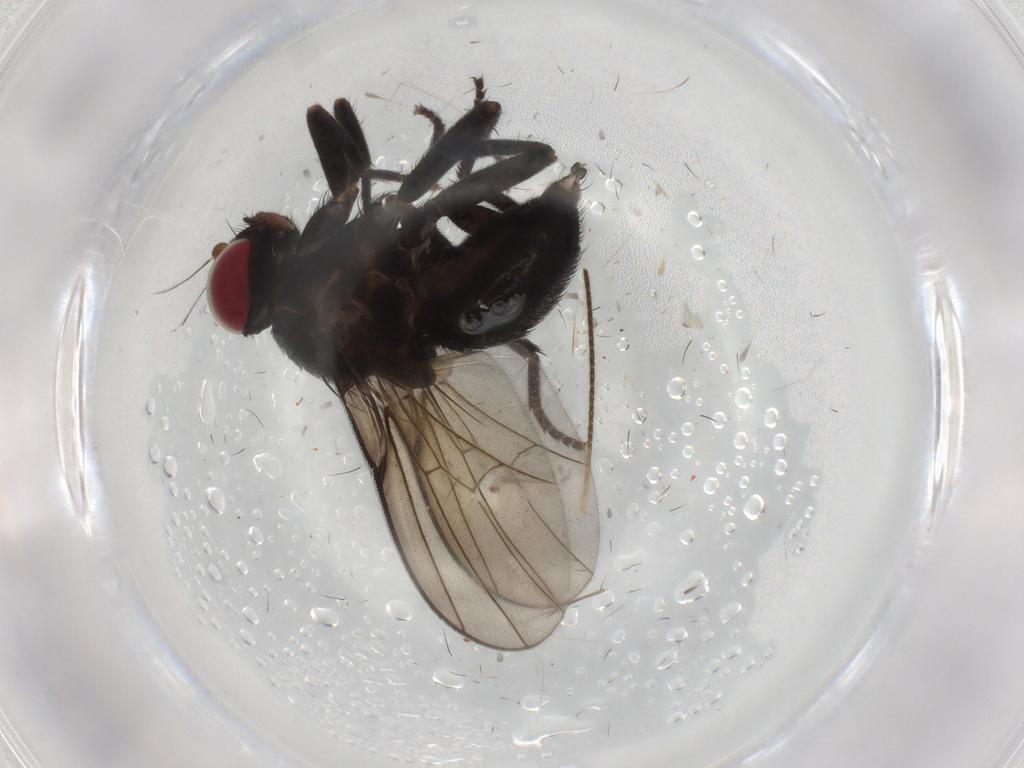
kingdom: Animalia
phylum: Arthropoda
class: Insecta
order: Diptera
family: Agromyzidae
